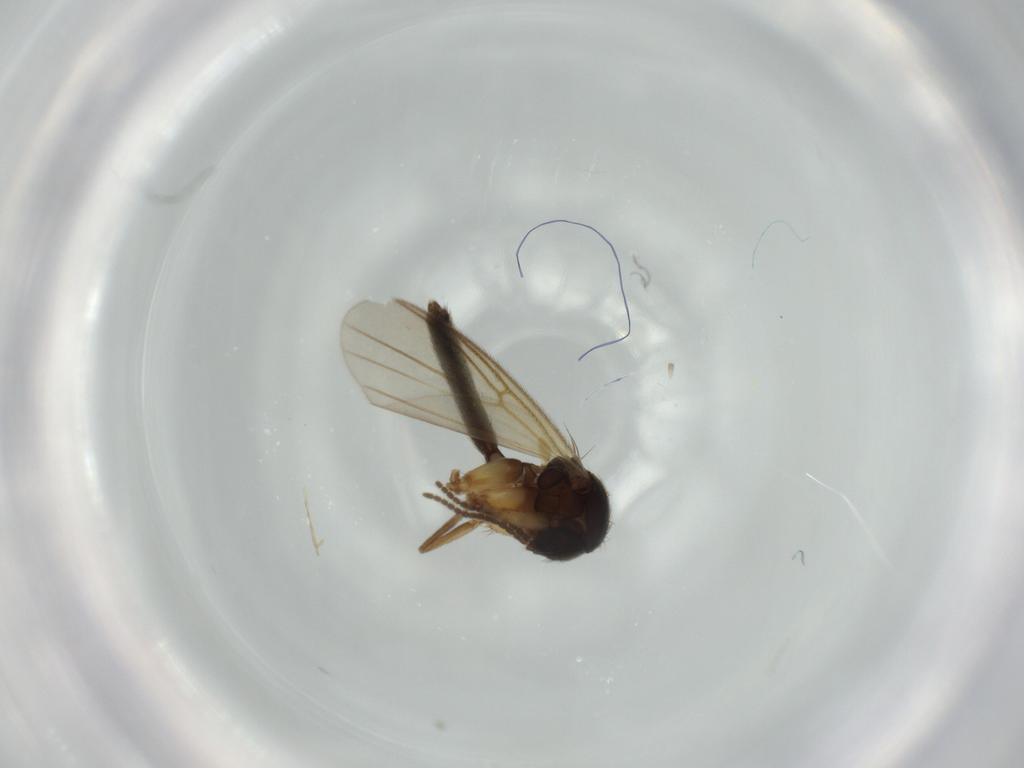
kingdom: Animalia
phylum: Arthropoda
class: Insecta
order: Diptera
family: Mycetophilidae
